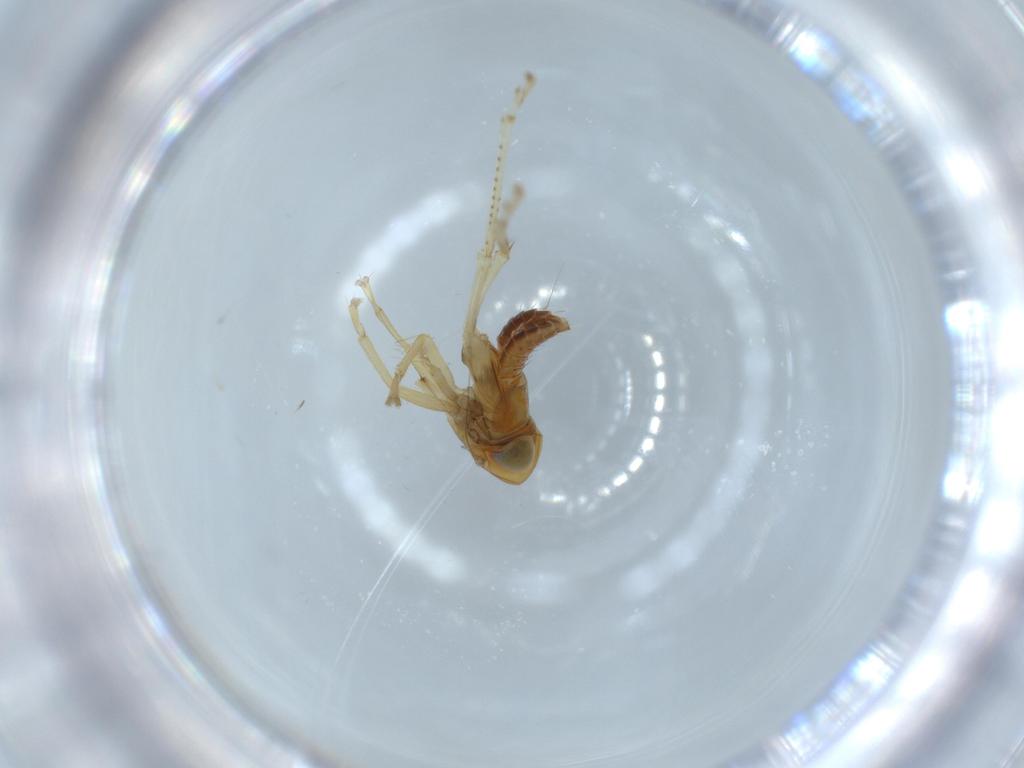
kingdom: Animalia
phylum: Arthropoda
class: Insecta
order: Hemiptera
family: Cicadellidae
